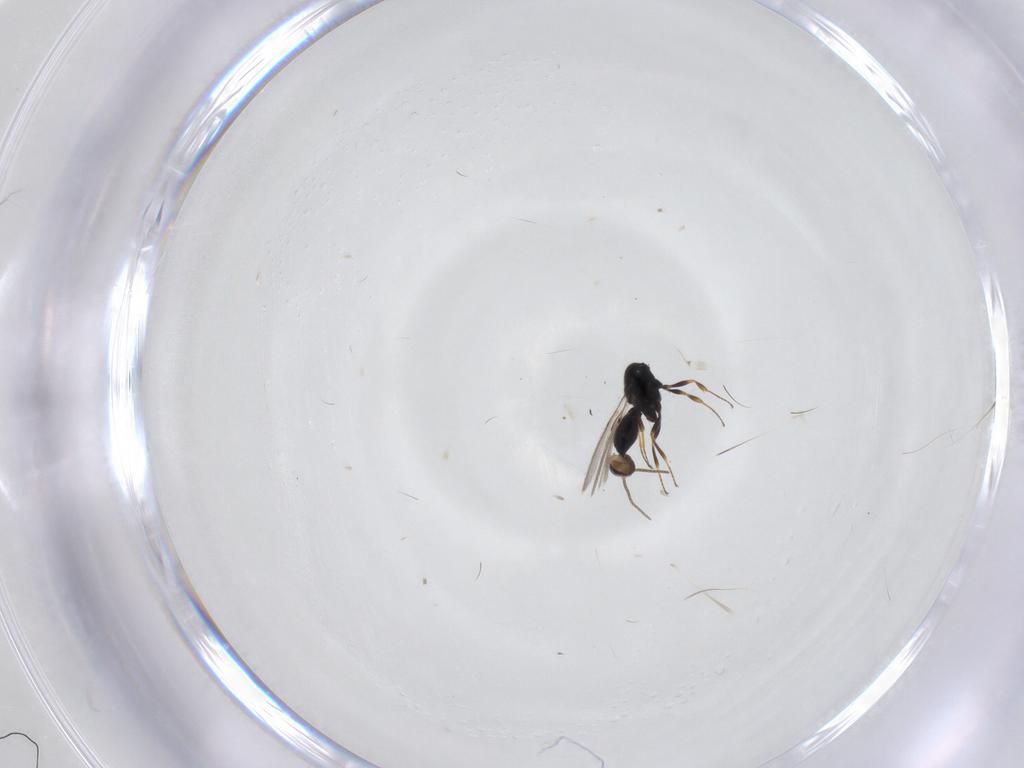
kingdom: Animalia
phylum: Arthropoda
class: Insecta
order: Hymenoptera
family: Scelionidae
